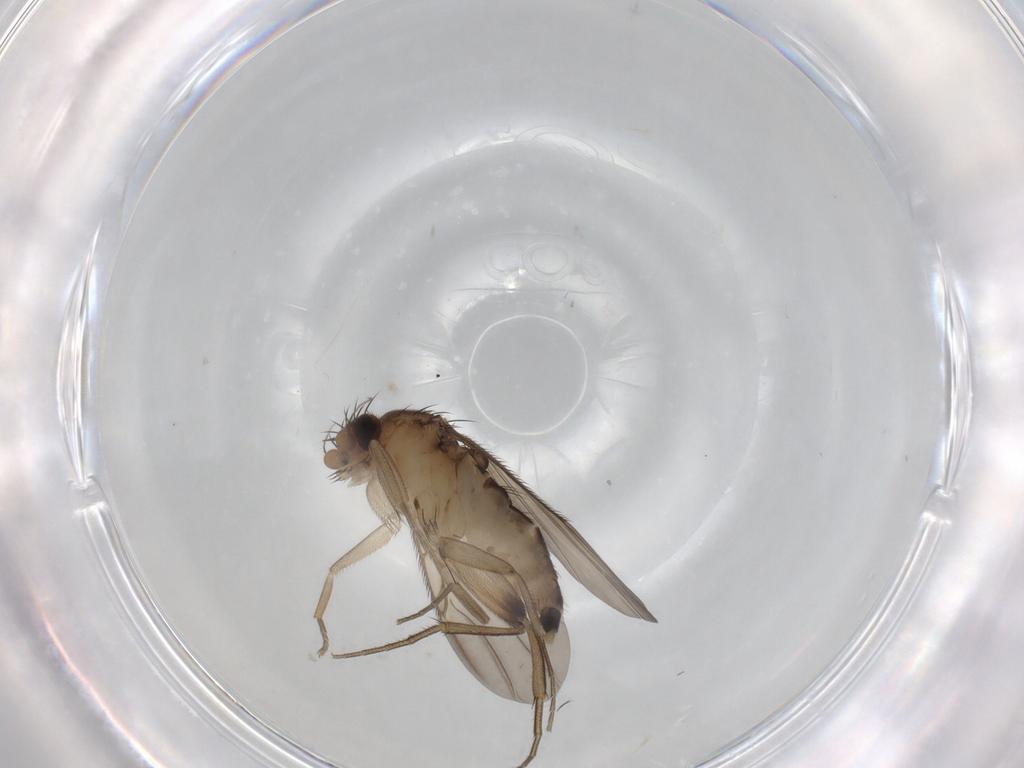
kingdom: Animalia
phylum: Arthropoda
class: Insecta
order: Diptera
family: Phoridae
